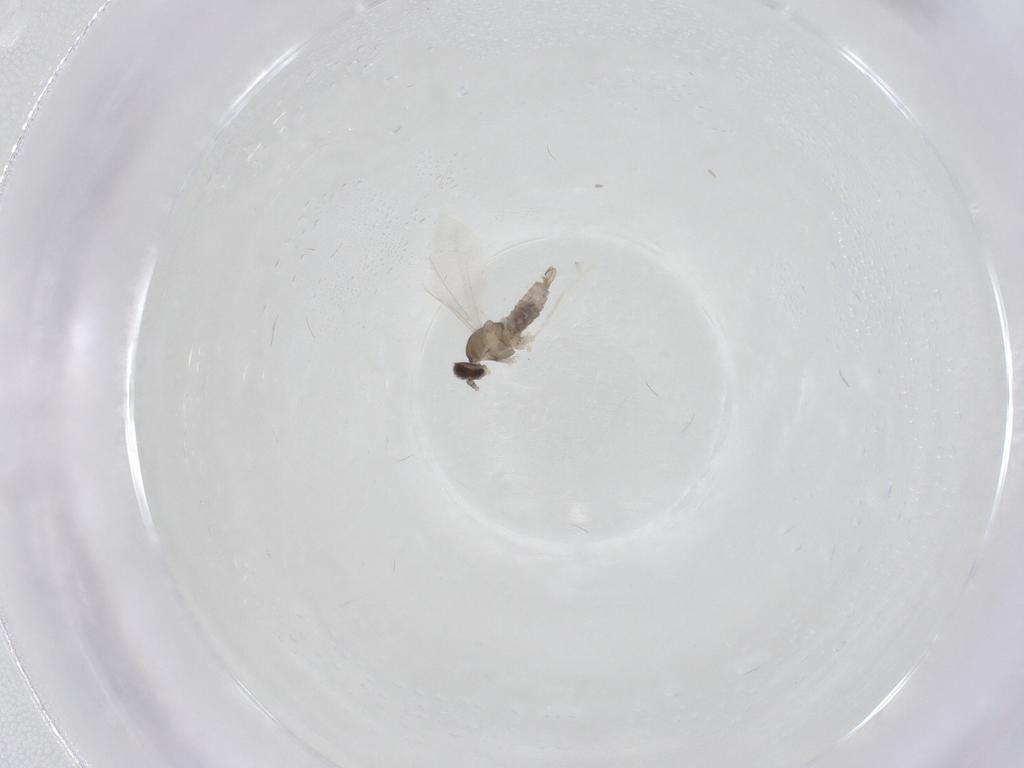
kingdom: Animalia
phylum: Arthropoda
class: Insecta
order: Diptera
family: Cecidomyiidae
